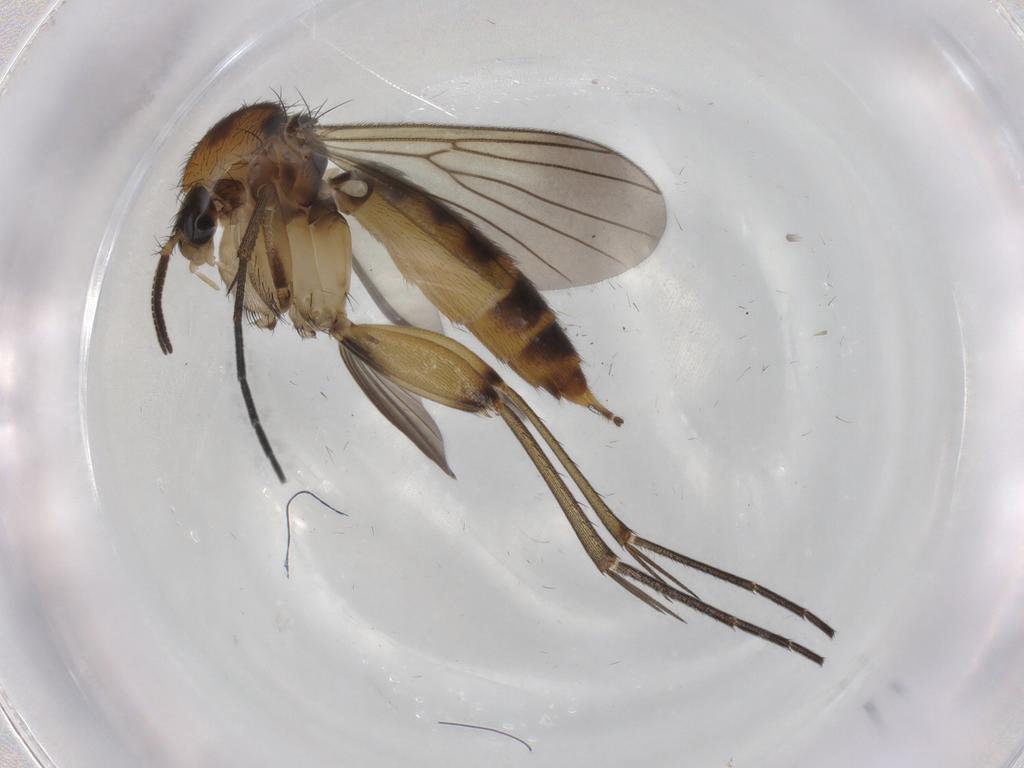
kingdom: Animalia
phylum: Arthropoda
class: Insecta
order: Diptera
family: Mycetophilidae
